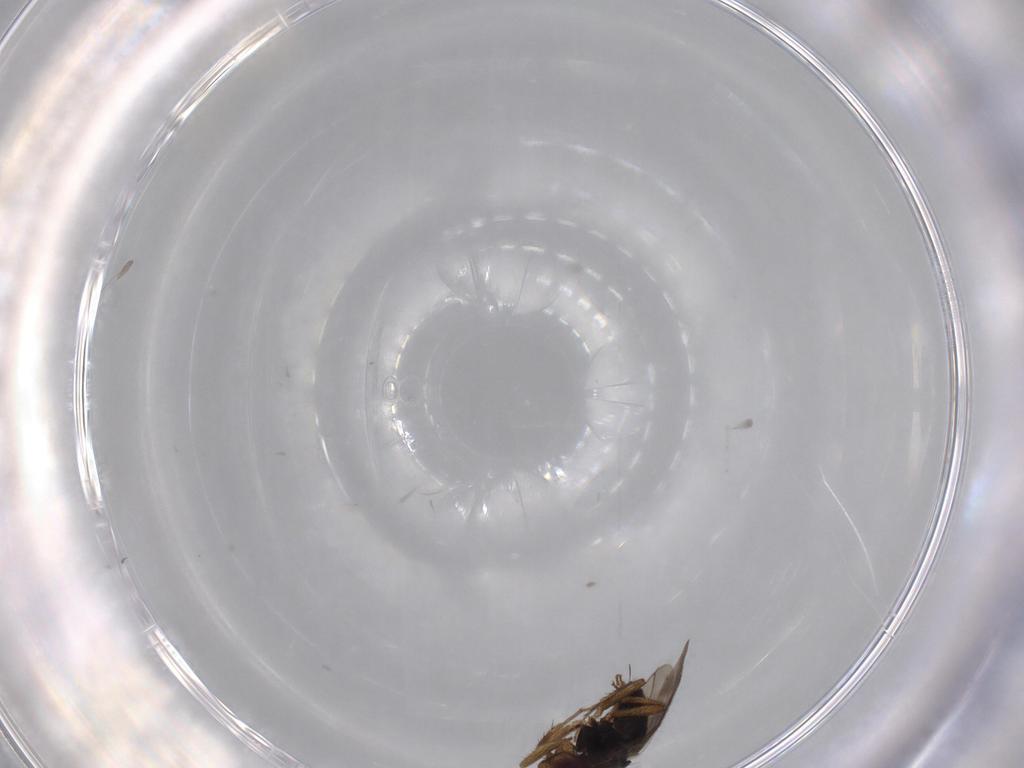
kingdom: Animalia
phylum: Arthropoda
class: Insecta
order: Diptera
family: Sphaeroceridae
